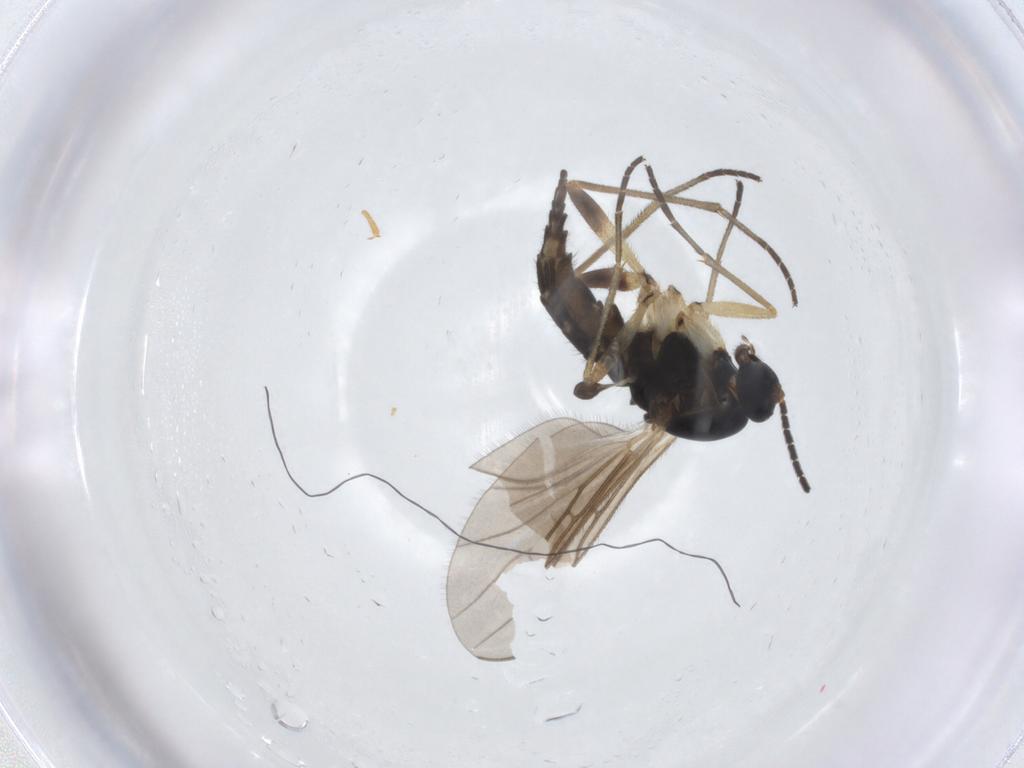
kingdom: Animalia
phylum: Arthropoda
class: Insecta
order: Diptera
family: Sciaridae
